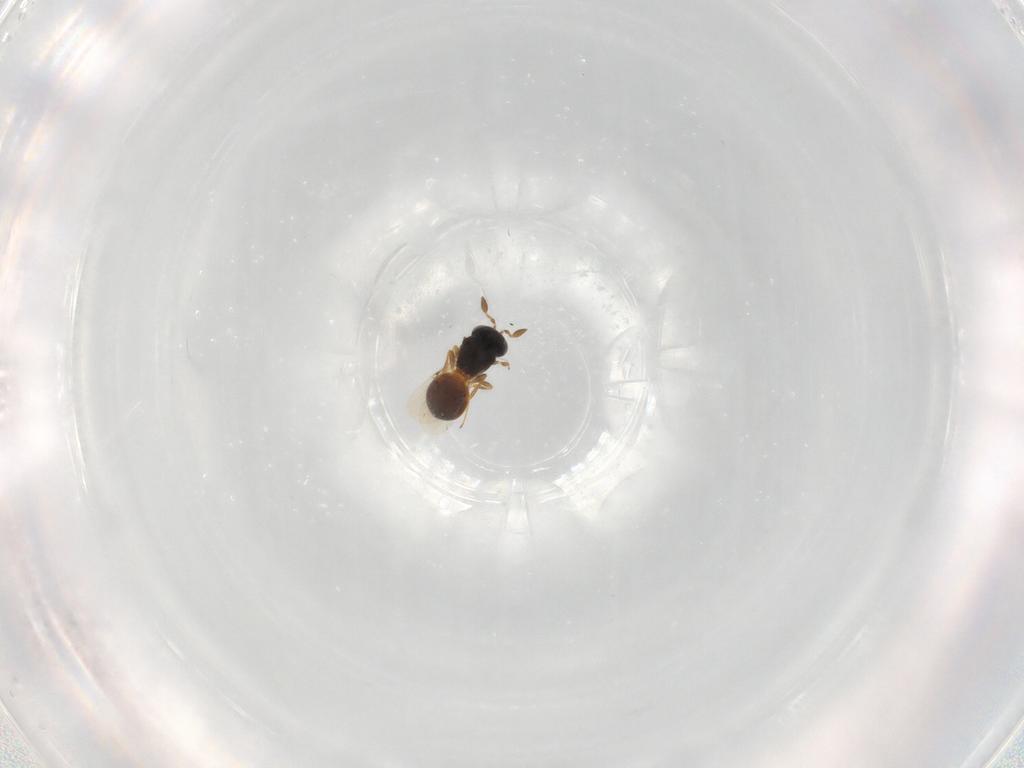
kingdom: Animalia
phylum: Arthropoda
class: Insecta
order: Hymenoptera
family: Scelionidae
